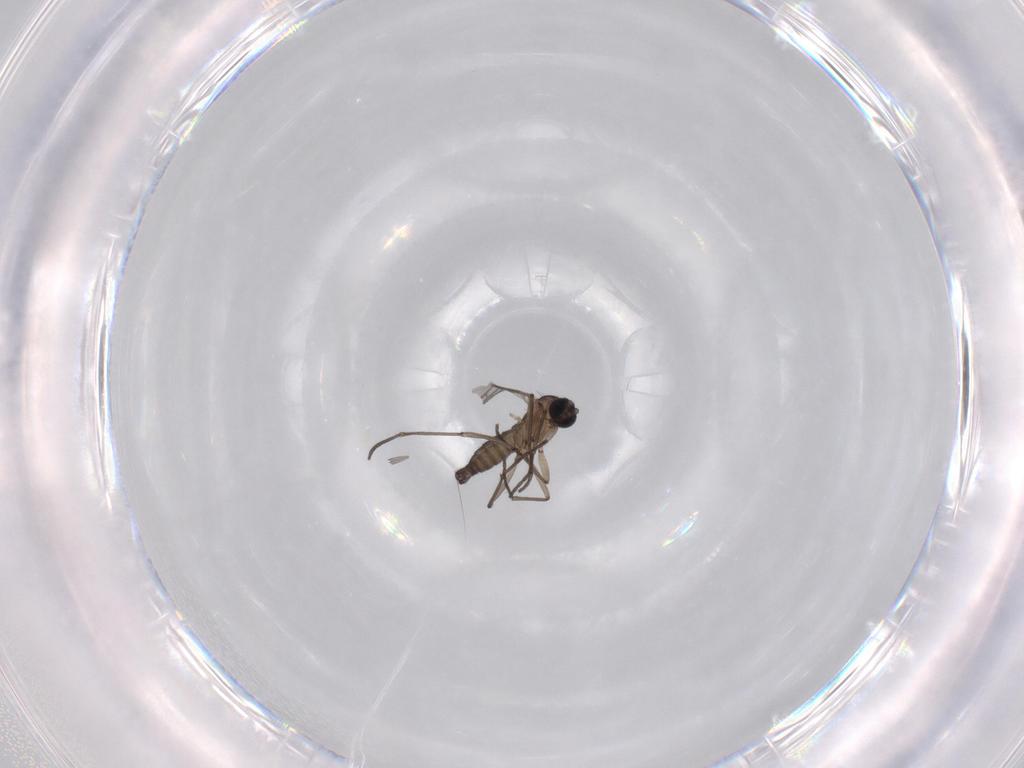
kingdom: Animalia
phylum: Arthropoda
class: Insecta
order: Diptera
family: Sciaridae
